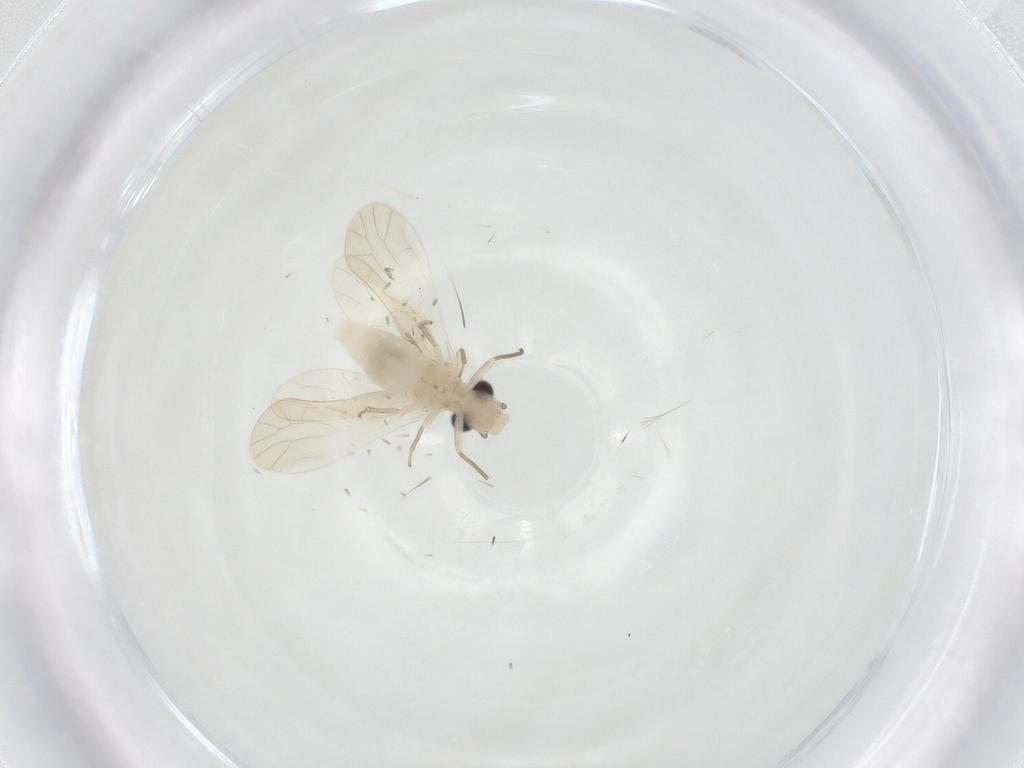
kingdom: Animalia
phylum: Arthropoda
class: Insecta
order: Psocodea
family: Caeciliusidae
